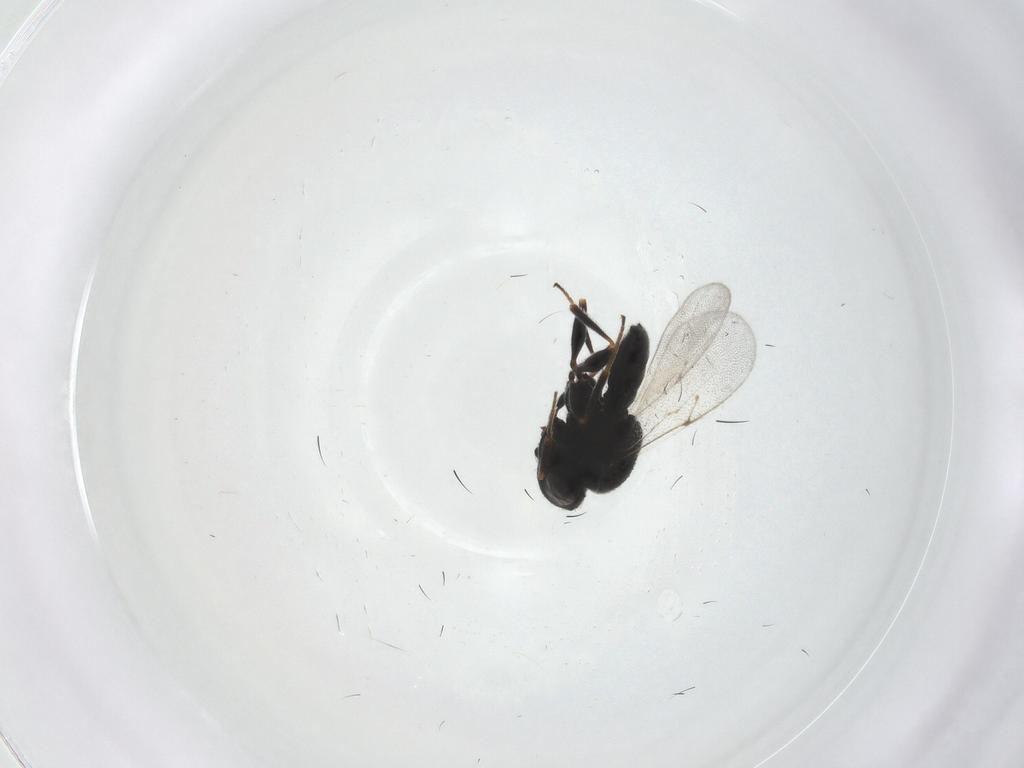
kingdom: Animalia
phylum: Arthropoda
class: Insecta
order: Hymenoptera
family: Scelionidae
